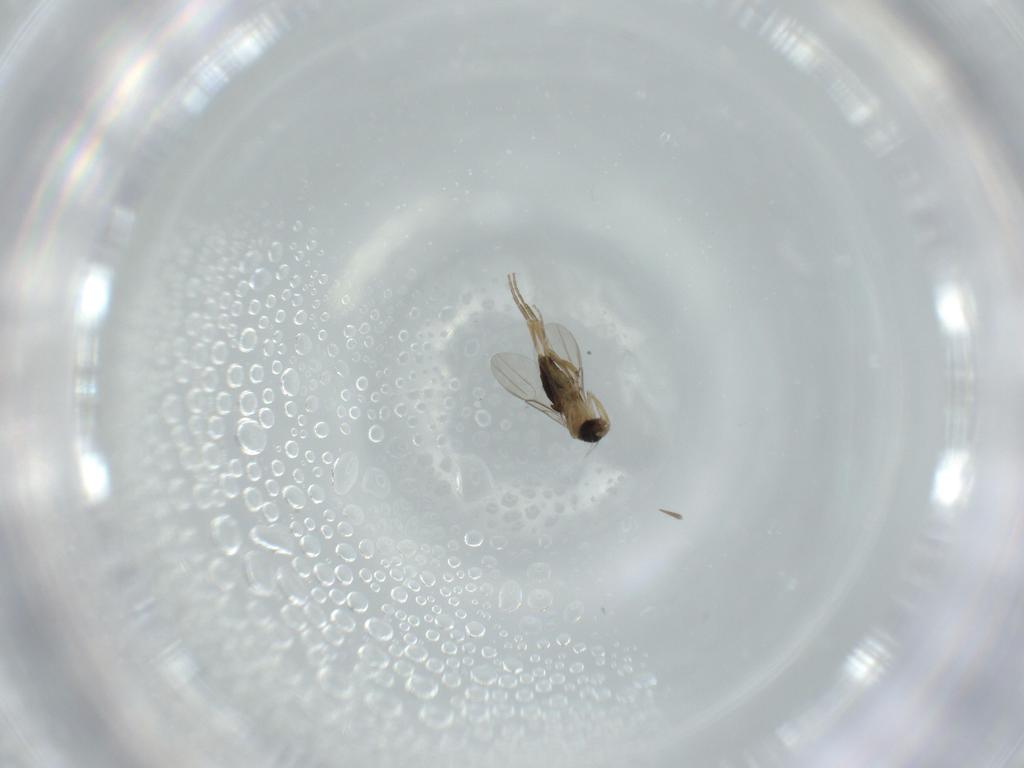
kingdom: Animalia
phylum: Arthropoda
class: Insecta
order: Diptera
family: Phoridae
